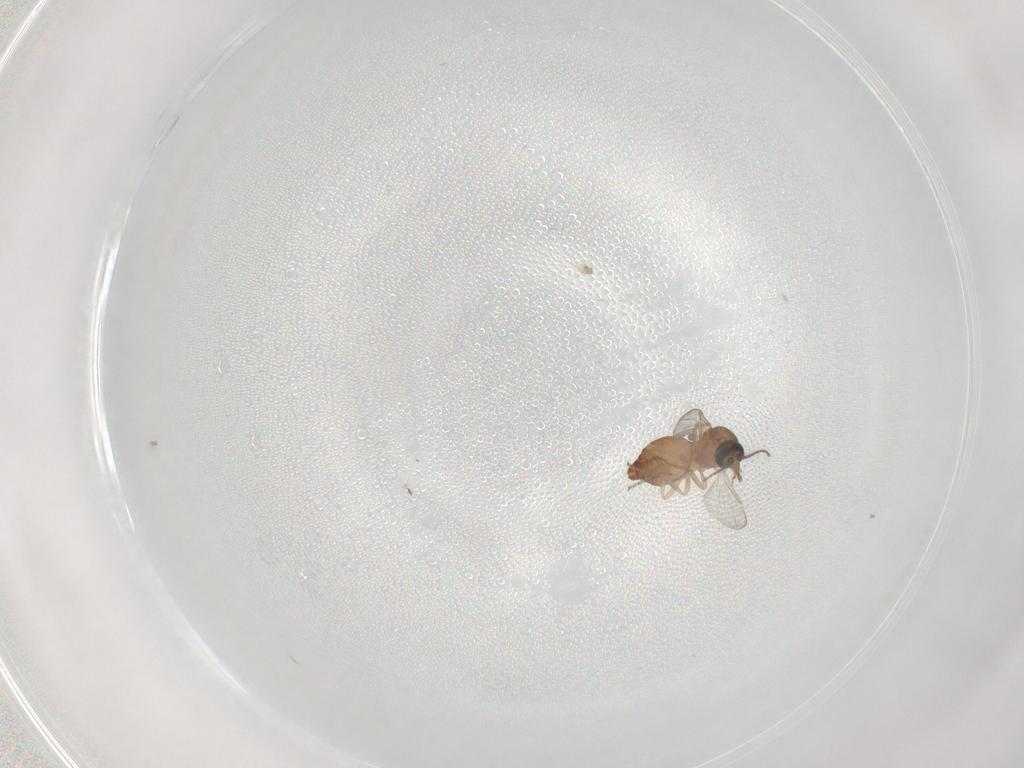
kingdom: Animalia
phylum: Arthropoda
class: Insecta
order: Diptera
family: Ceratopogonidae
